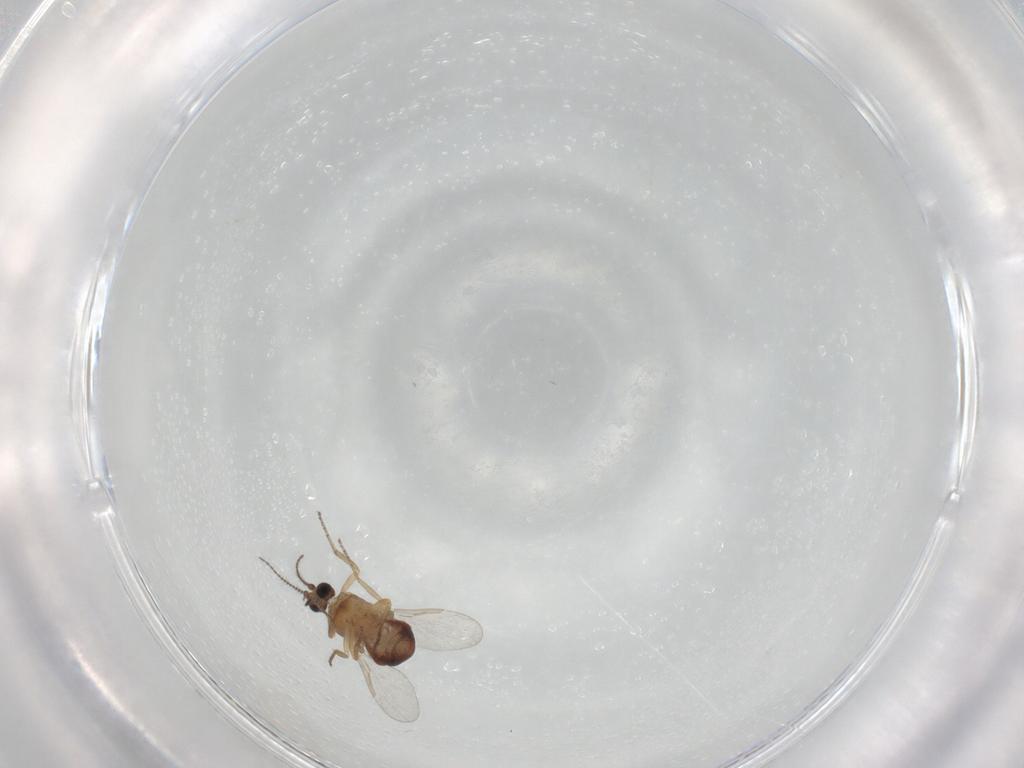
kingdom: Animalia
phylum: Arthropoda
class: Insecta
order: Diptera
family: Ceratopogonidae
